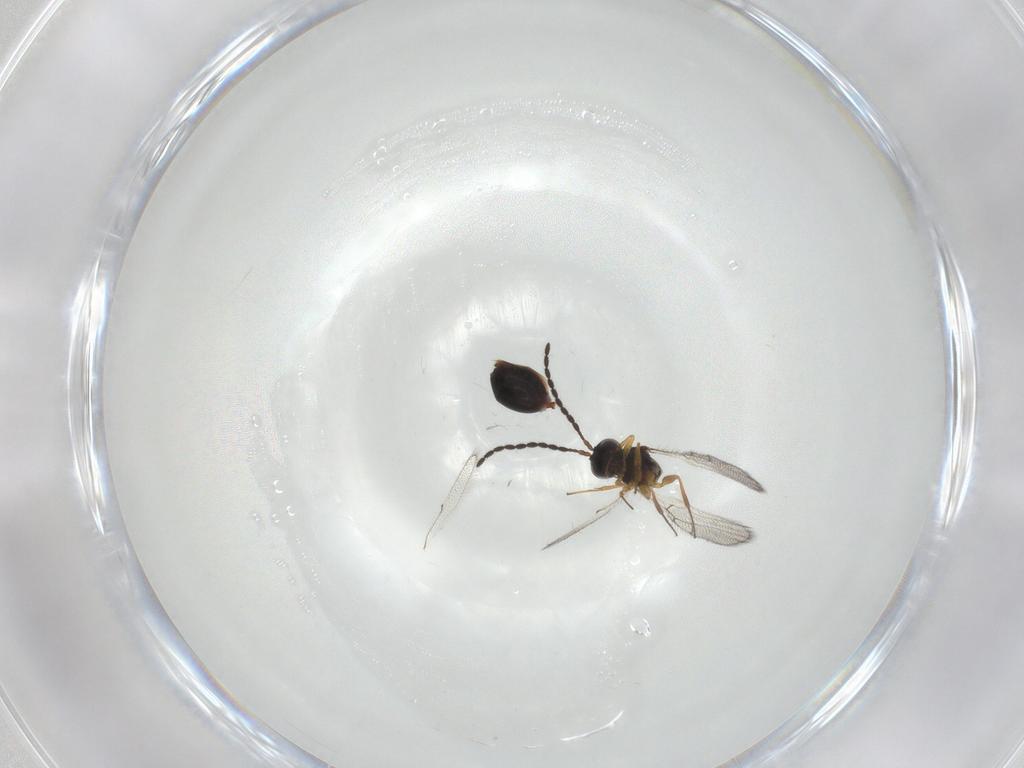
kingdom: Animalia
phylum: Arthropoda
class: Insecta
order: Hymenoptera
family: Figitidae
